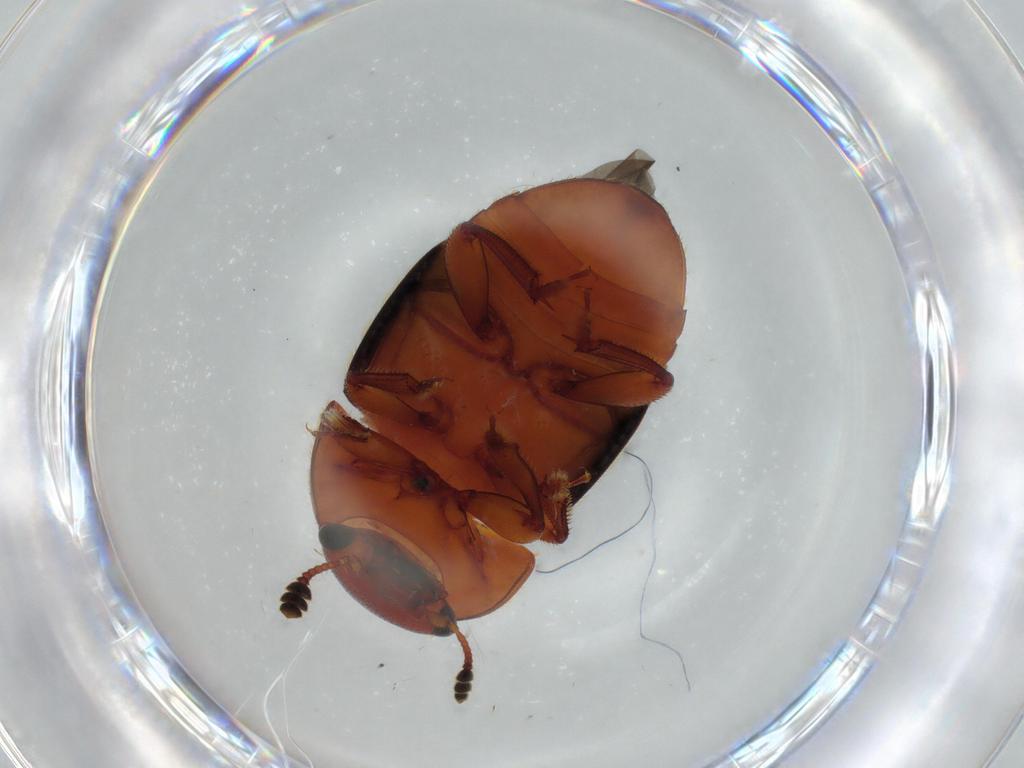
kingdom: Animalia
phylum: Arthropoda
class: Insecta
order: Coleoptera
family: Nitidulidae
